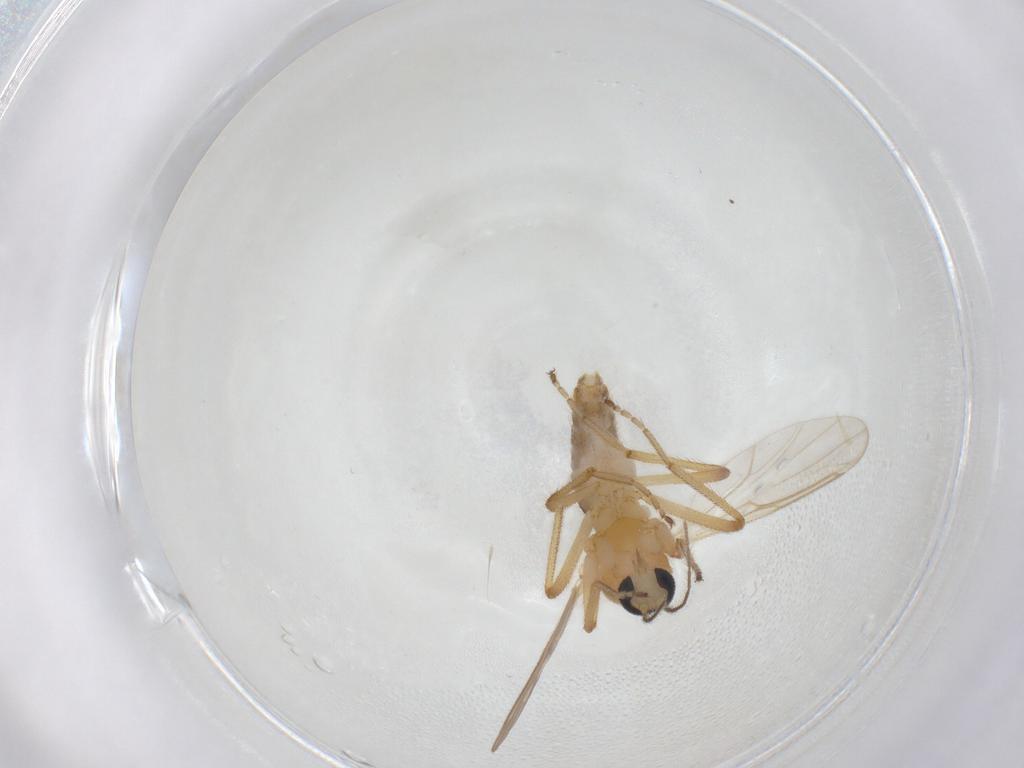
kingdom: Animalia
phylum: Arthropoda
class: Insecta
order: Diptera
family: Ceratopogonidae
